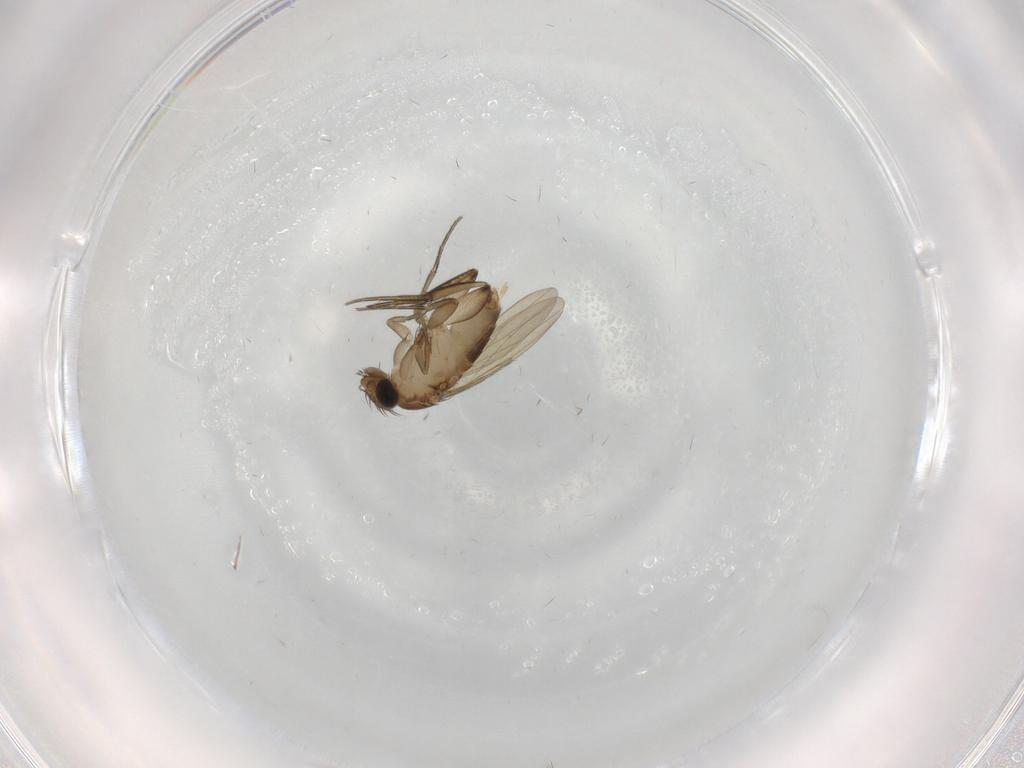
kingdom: Animalia
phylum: Arthropoda
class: Insecta
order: Diptera
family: Phoridae
